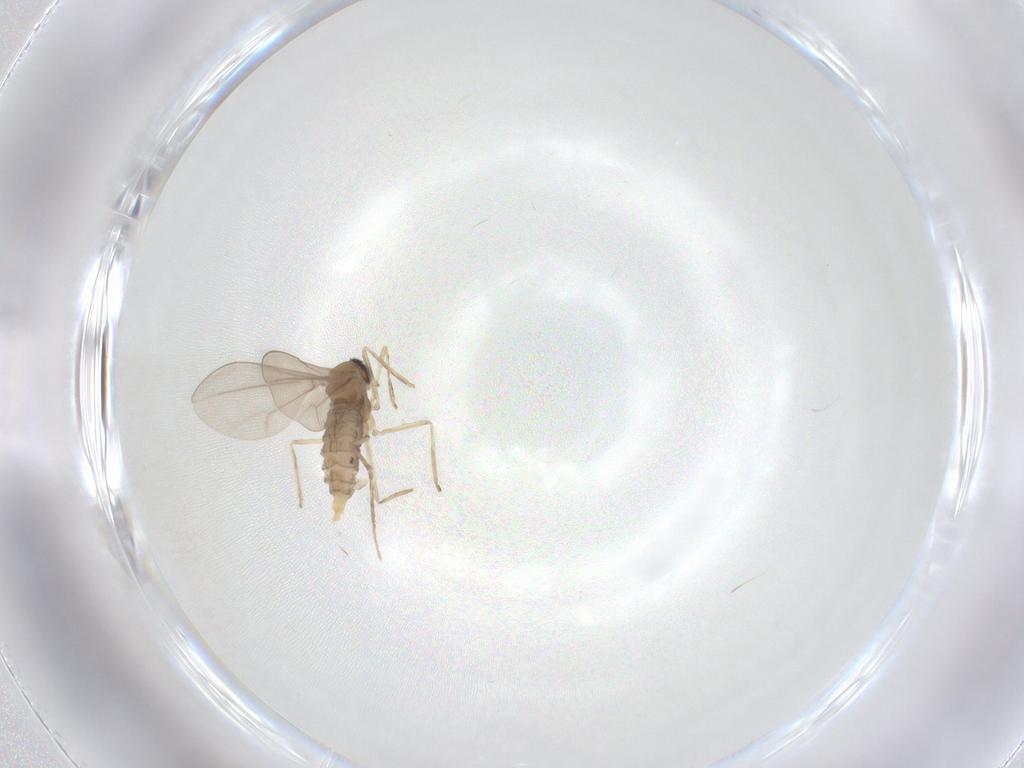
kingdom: Animalia
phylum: Arthropoda
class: Insecta
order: Diptera
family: Cecidomyiidae
